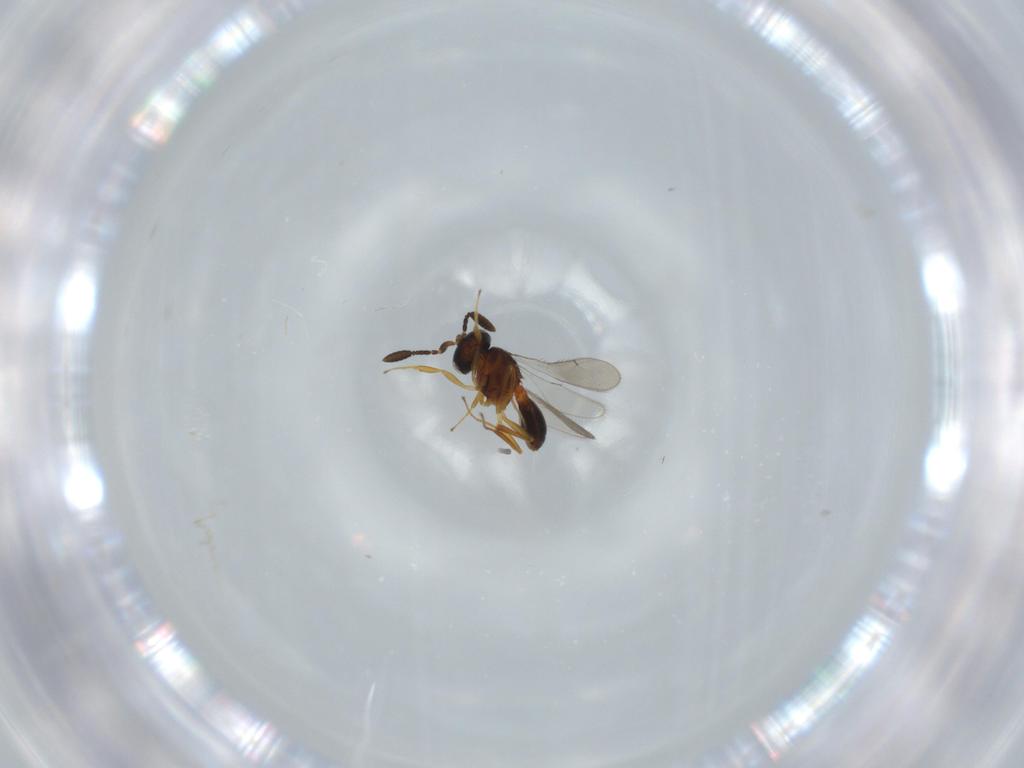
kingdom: Animalia
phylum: Arthropoda
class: Insecta
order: Hymenoptera
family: Scelionidae
